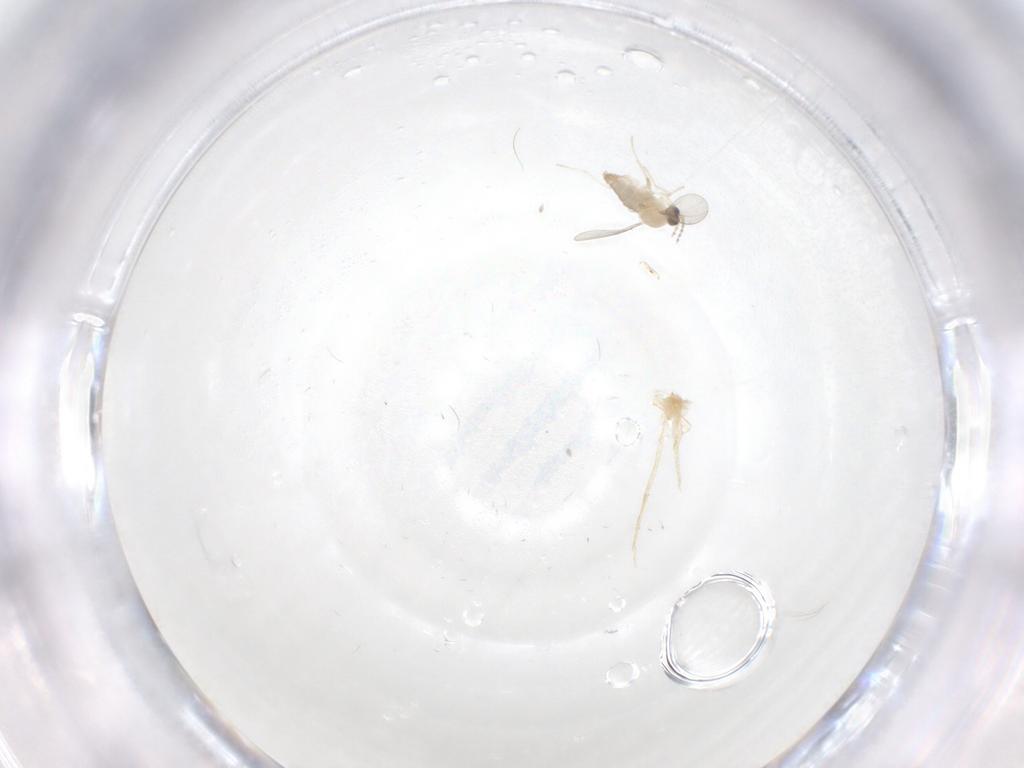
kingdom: Animalia
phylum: Arthropoda
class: Insecta
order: Diptera
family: Cecidomyiidae
